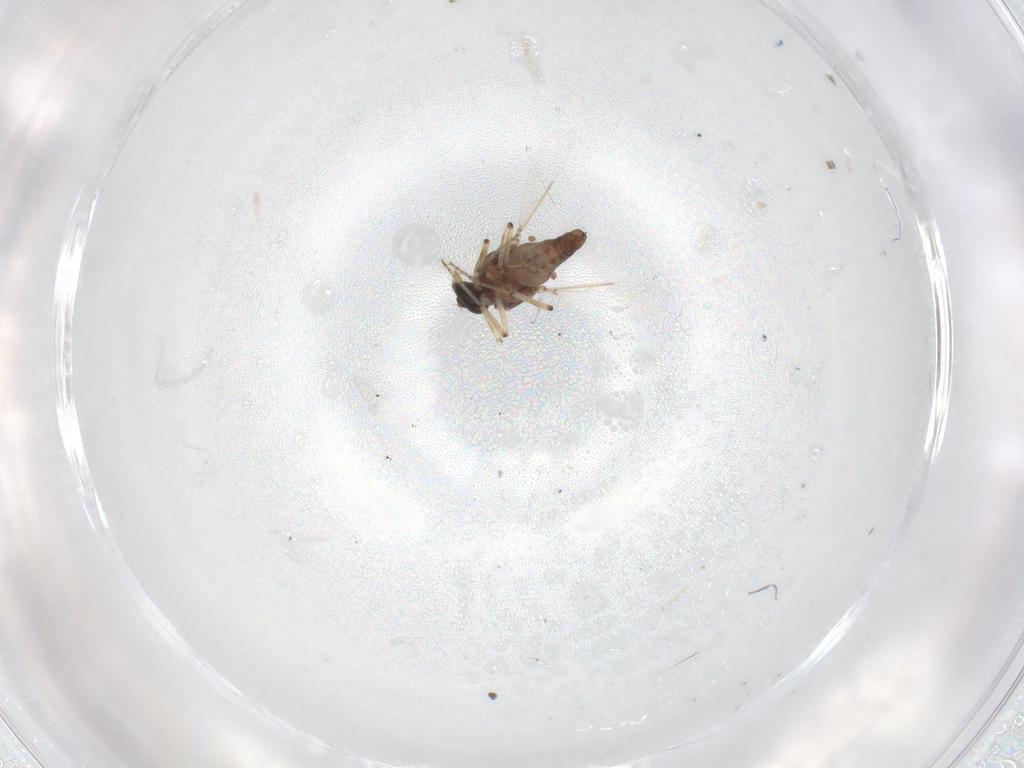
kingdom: Animalia
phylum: Arthropoda
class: Insecta
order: Diptera
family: Ceratopogonidae
